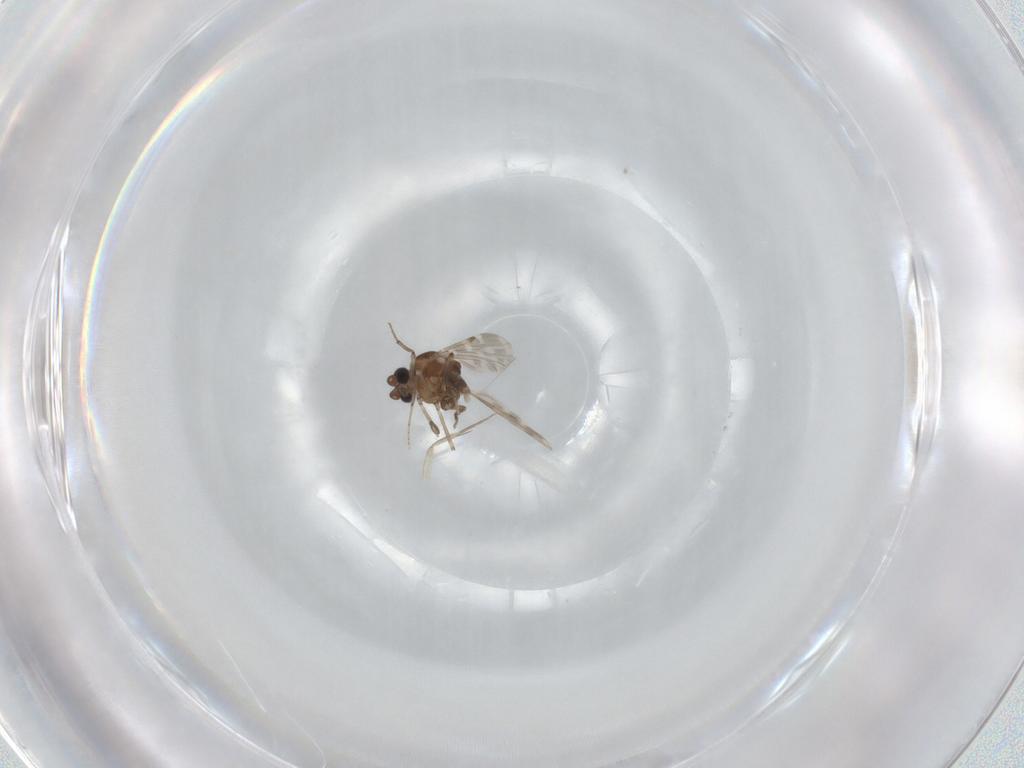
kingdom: Animalia
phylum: Arthropoda
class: Insecta
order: Diptera
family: Ceratopogonidae
